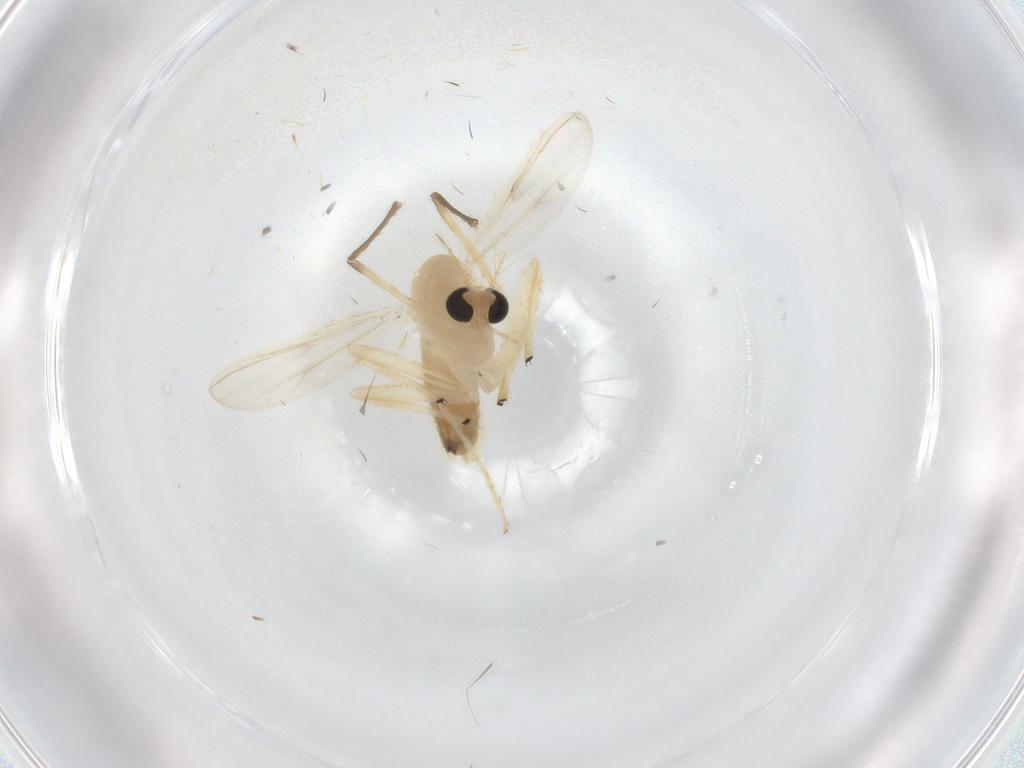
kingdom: Animalia
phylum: Arthropoda
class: Insecta
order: Diptera
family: Chironomidae
